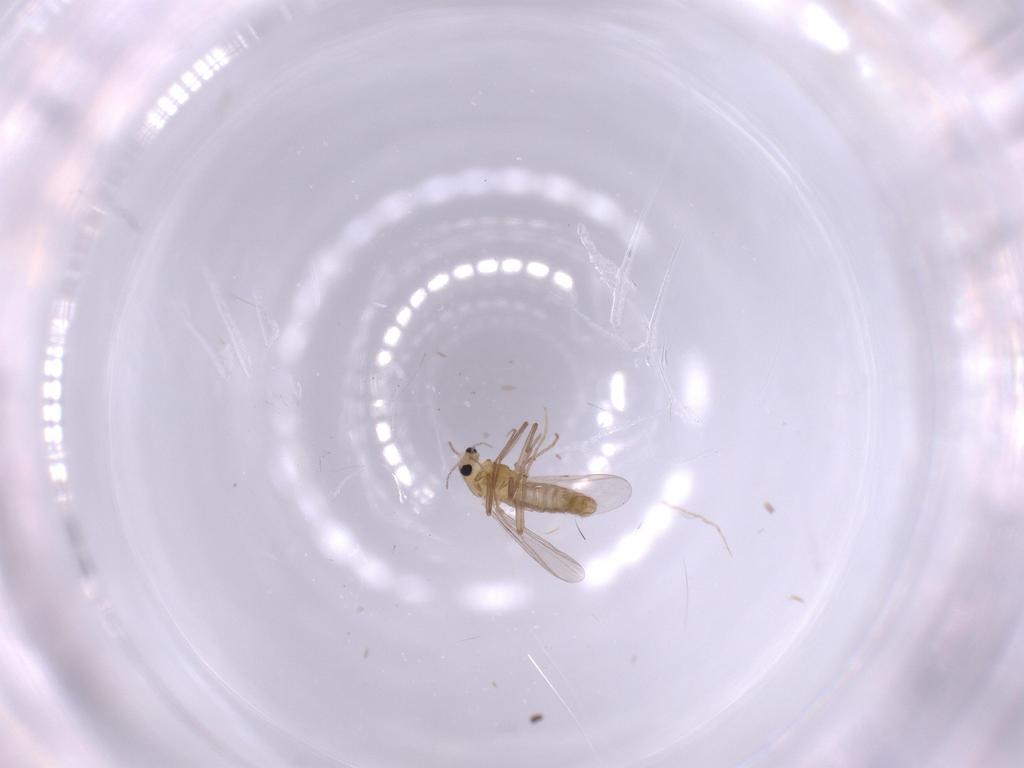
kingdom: Animalia
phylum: Arthropoda
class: Insecta
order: Diptera
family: Chironomidae
